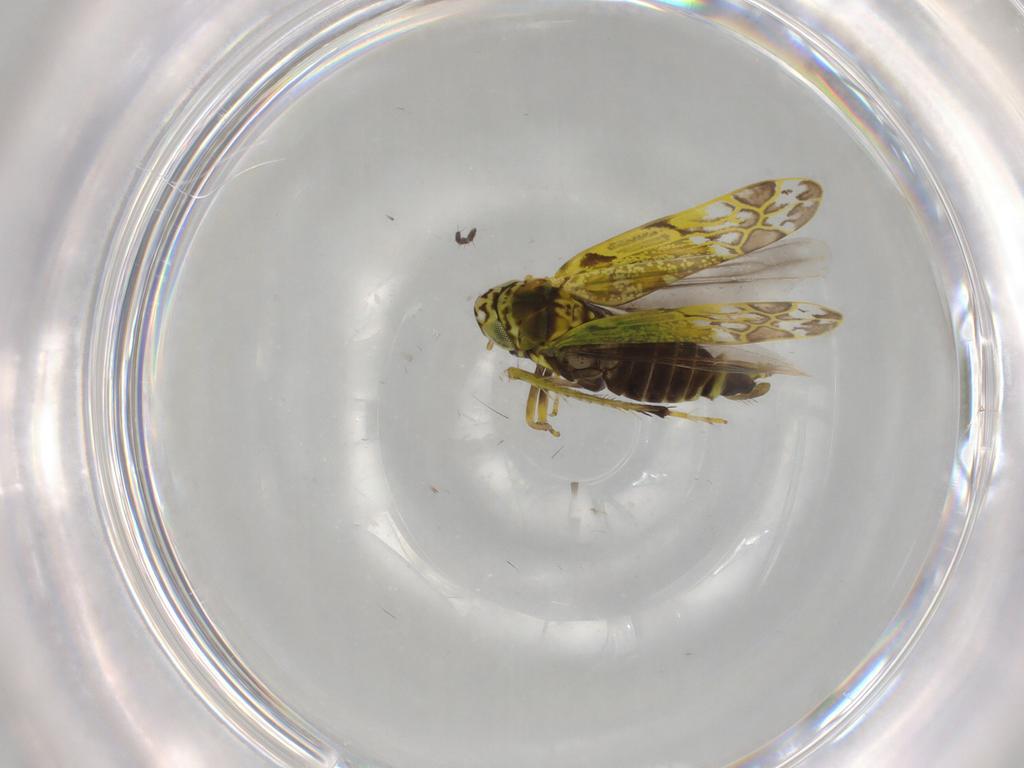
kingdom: Animalia
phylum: Arthropoda
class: Insecta
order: Hemiptera
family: Cicadellidae
